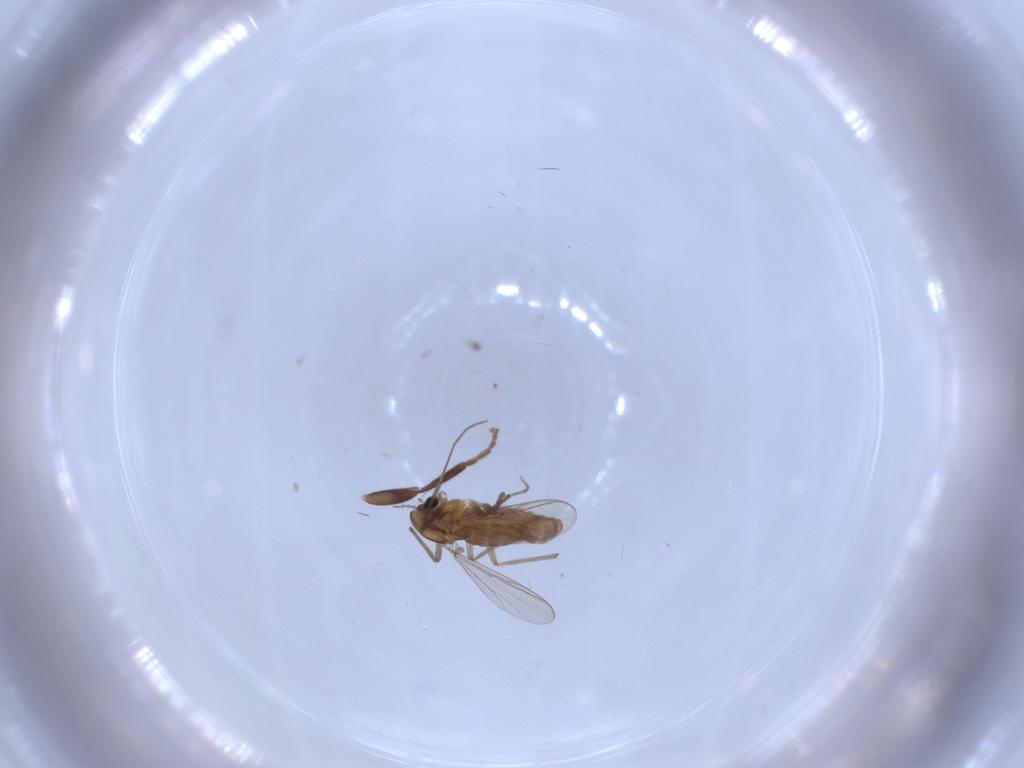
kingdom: Animalia
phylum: Arthropoda
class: Insecta
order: Diptera
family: Chironomidae
